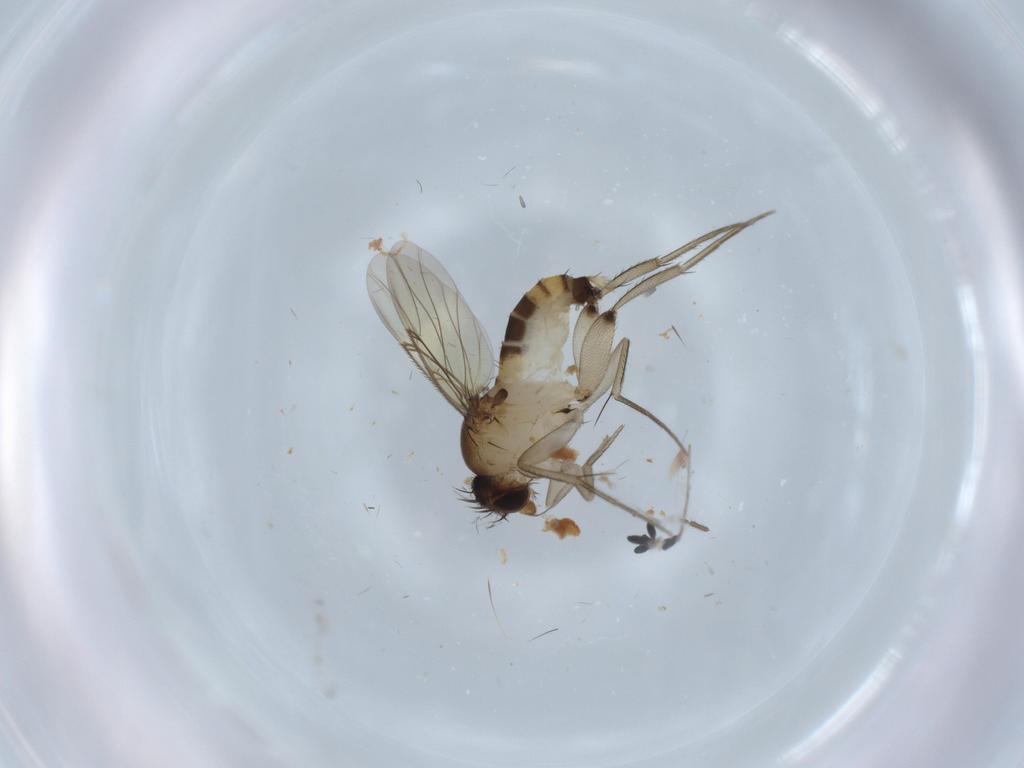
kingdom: Animalia
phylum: Arthropoda
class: Insecta
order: Diptera
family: Phoridae
